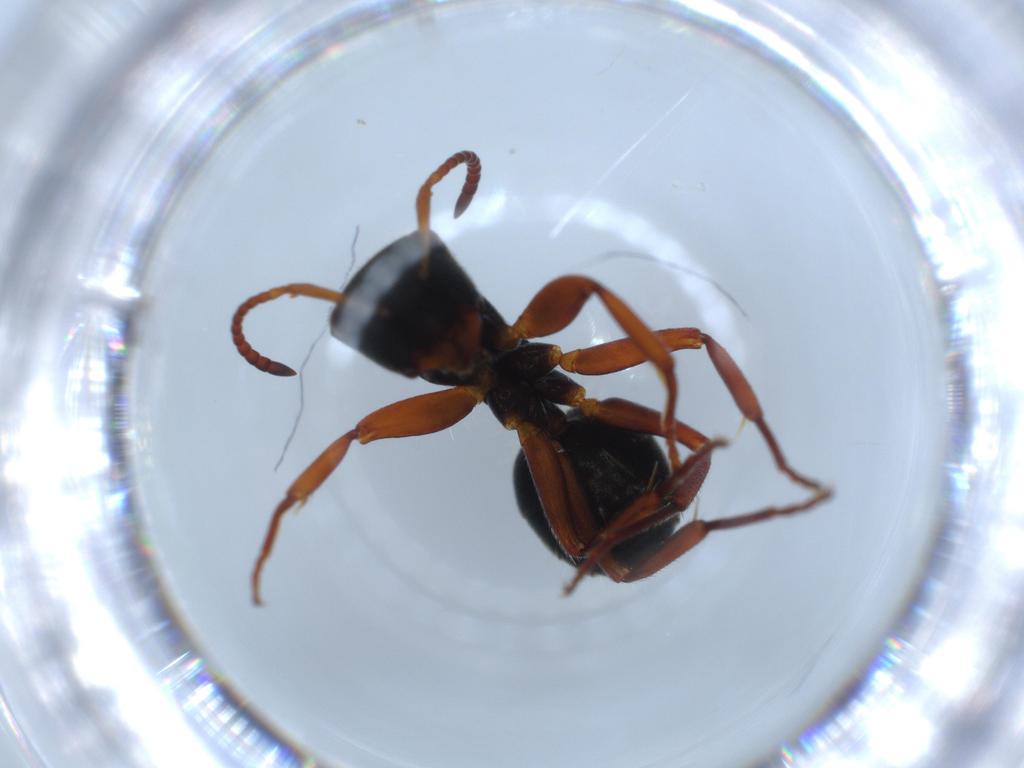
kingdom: Animalia
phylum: Arthropoda
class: Insecta
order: Hymenoptera
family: Formicidae
